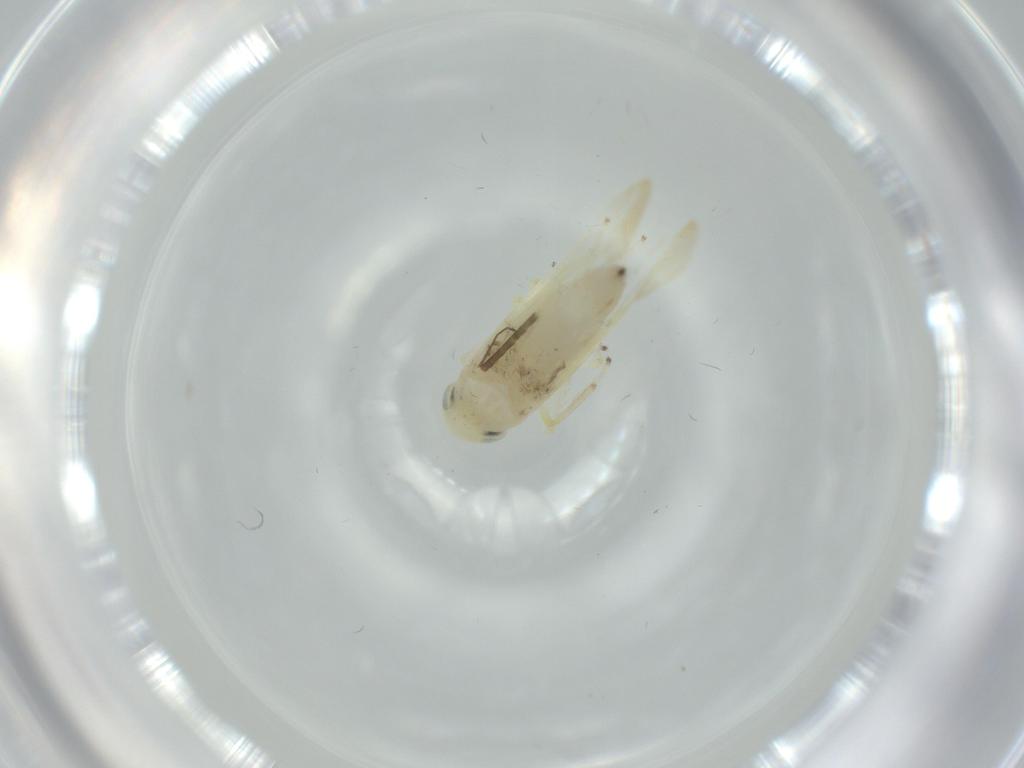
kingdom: Animalia
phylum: Arthropoda
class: Insecta
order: Hemiptera
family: Cicadellidae
